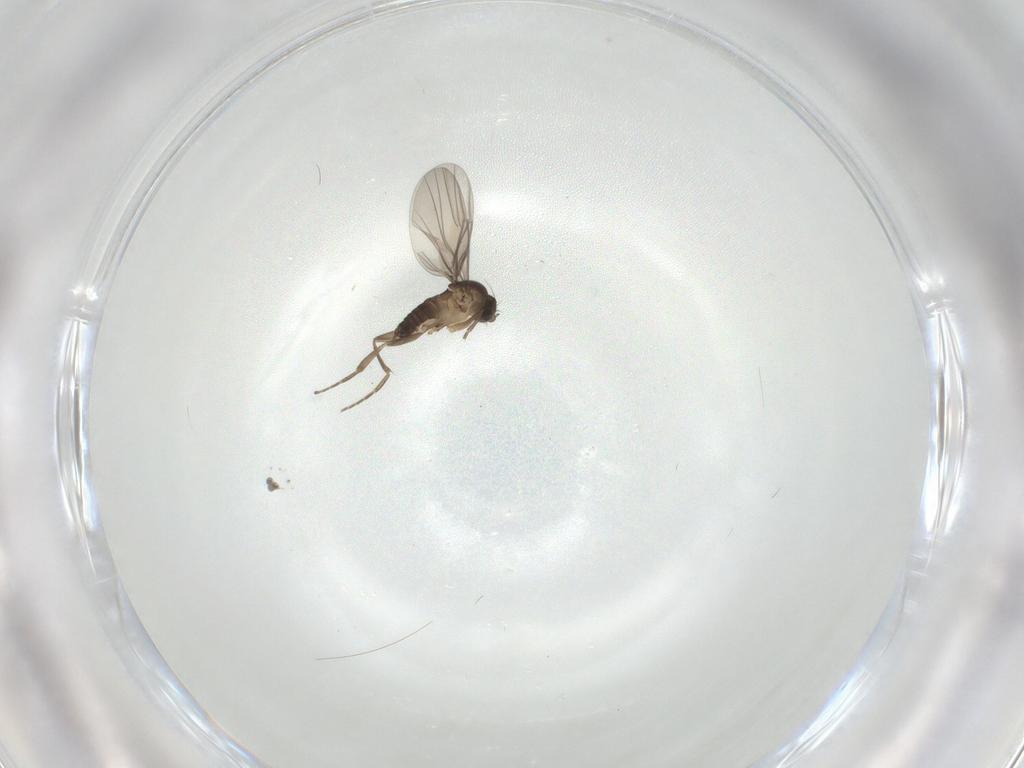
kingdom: Animalia
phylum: Arthropoda
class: Insecta
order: Diptera
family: Phoridae
